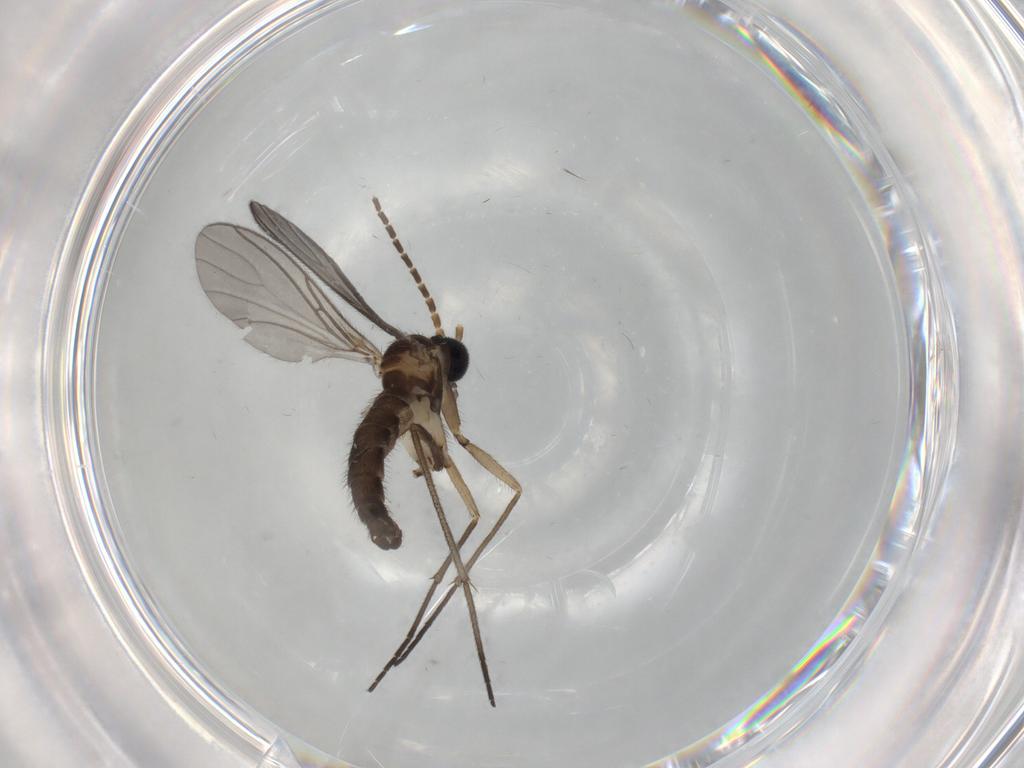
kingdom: Animalia
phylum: Arthropoda
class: Insecta
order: Diptera
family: Sciaridae
